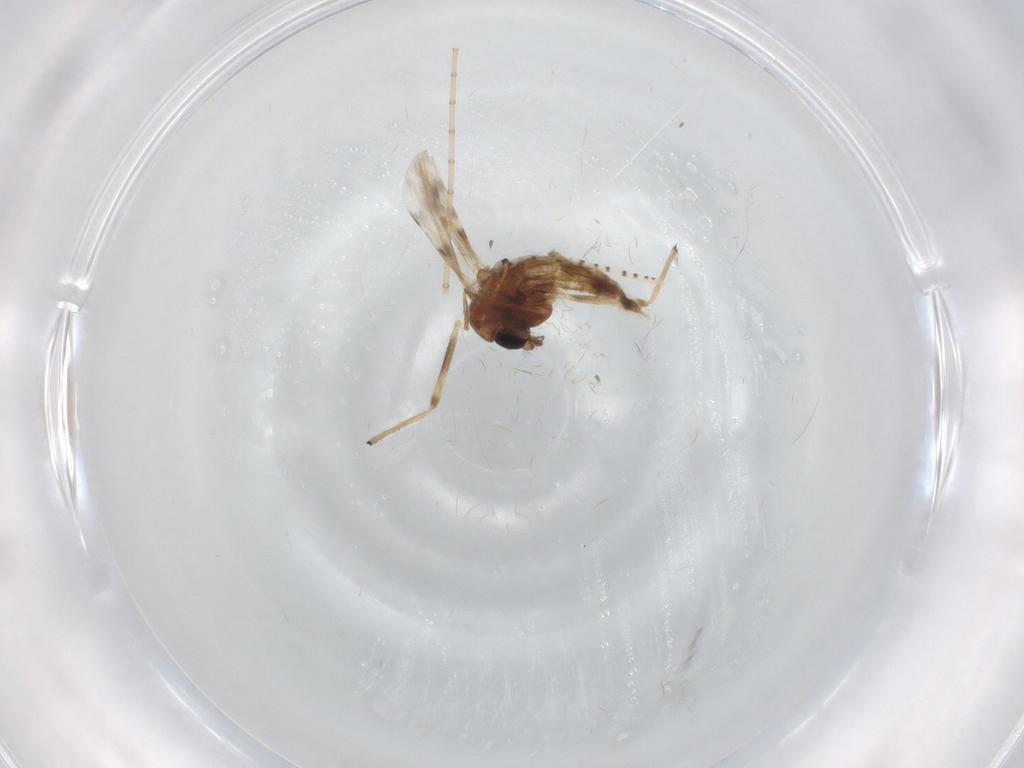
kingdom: Animalia
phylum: Arthropoda
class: Insecta
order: Diptera
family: Chironomidae
